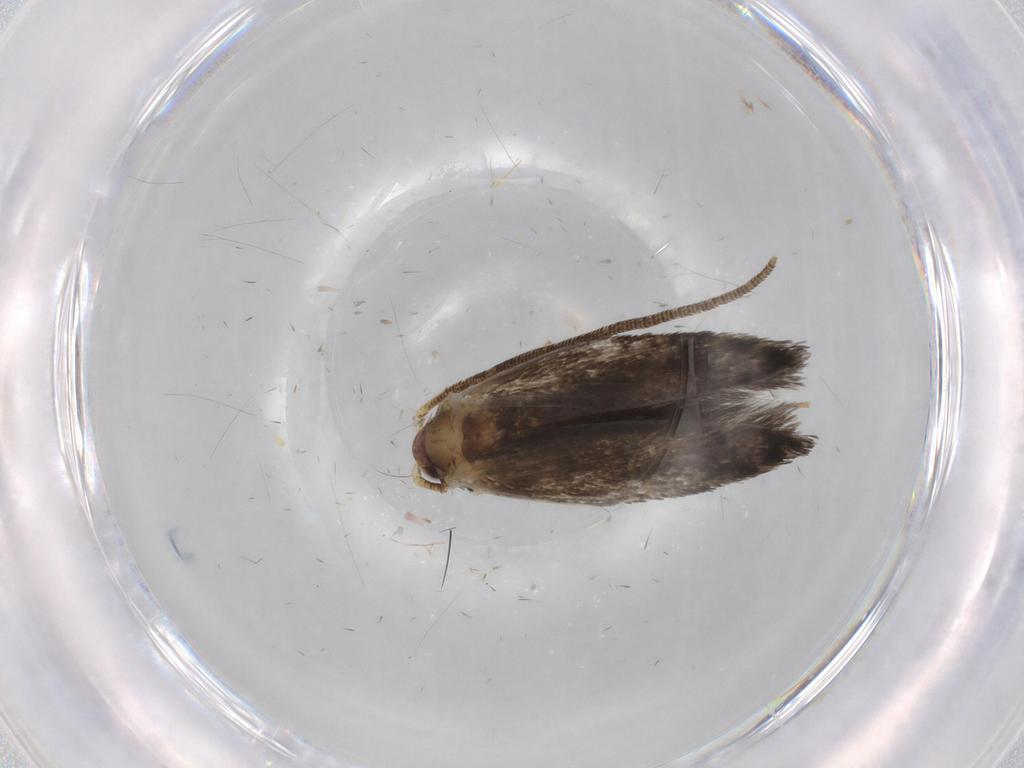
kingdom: Animalia
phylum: Arthropoda
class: Insecta
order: Lepidoptera
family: Tineidae
